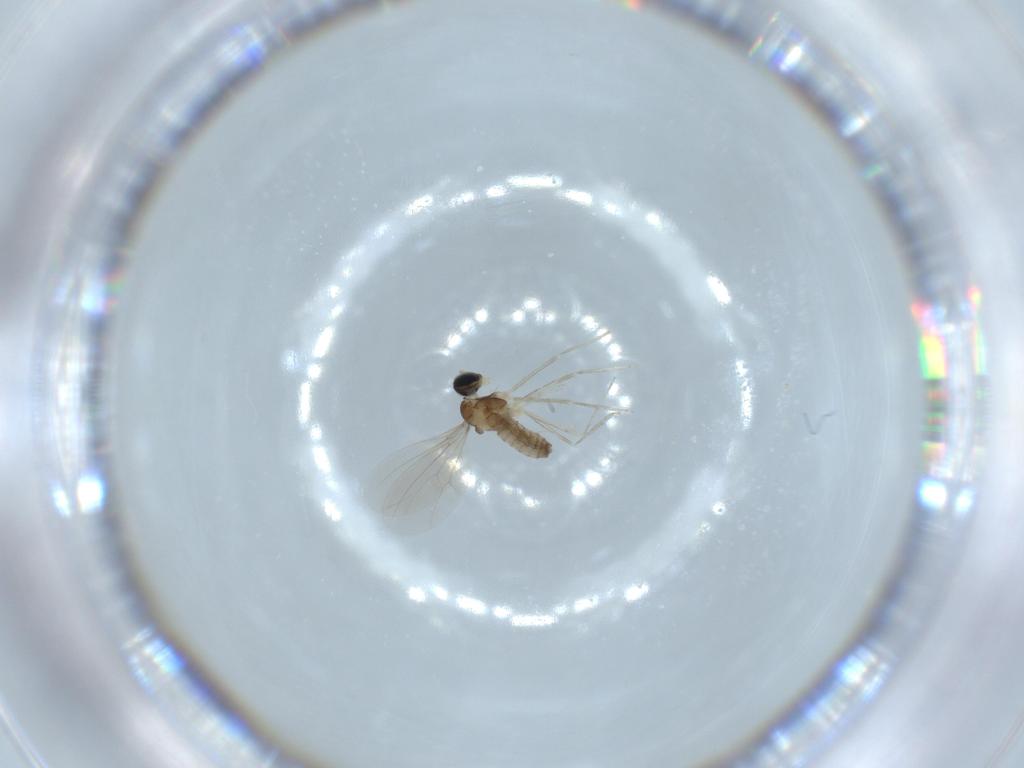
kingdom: Animalia
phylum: Arthropoda
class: Insecta
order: Diptera
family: Cecidomyiidae
